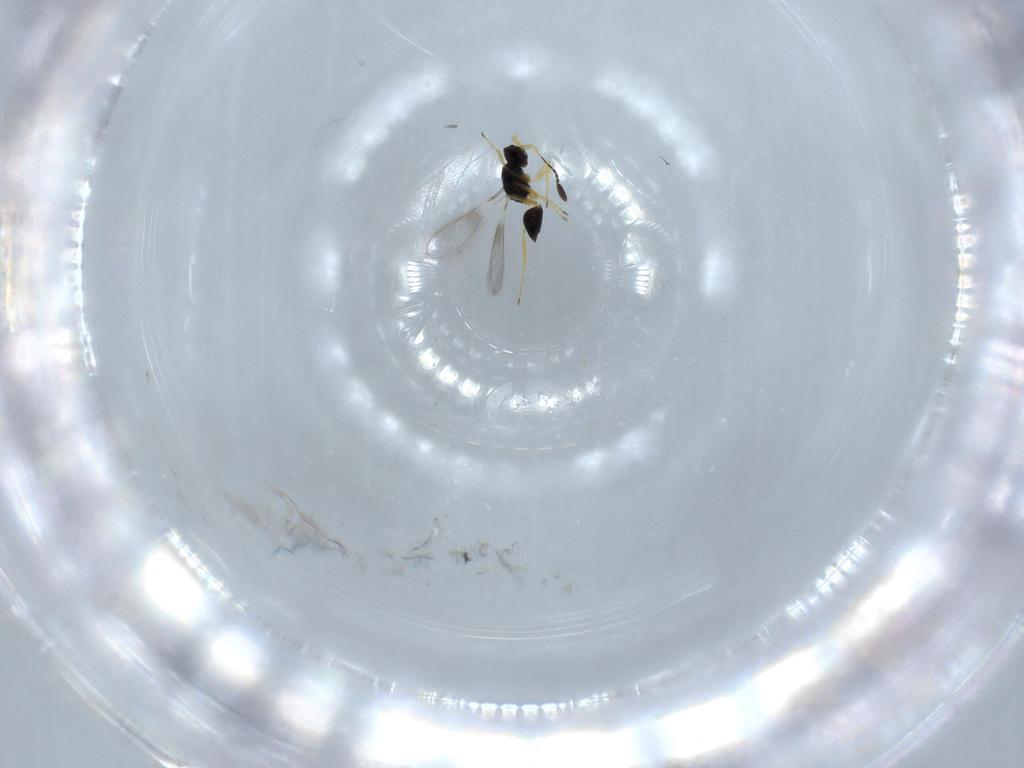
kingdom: Animalia
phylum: Arthropoda
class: Insecta
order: Hymenoptera
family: Mymaridae
